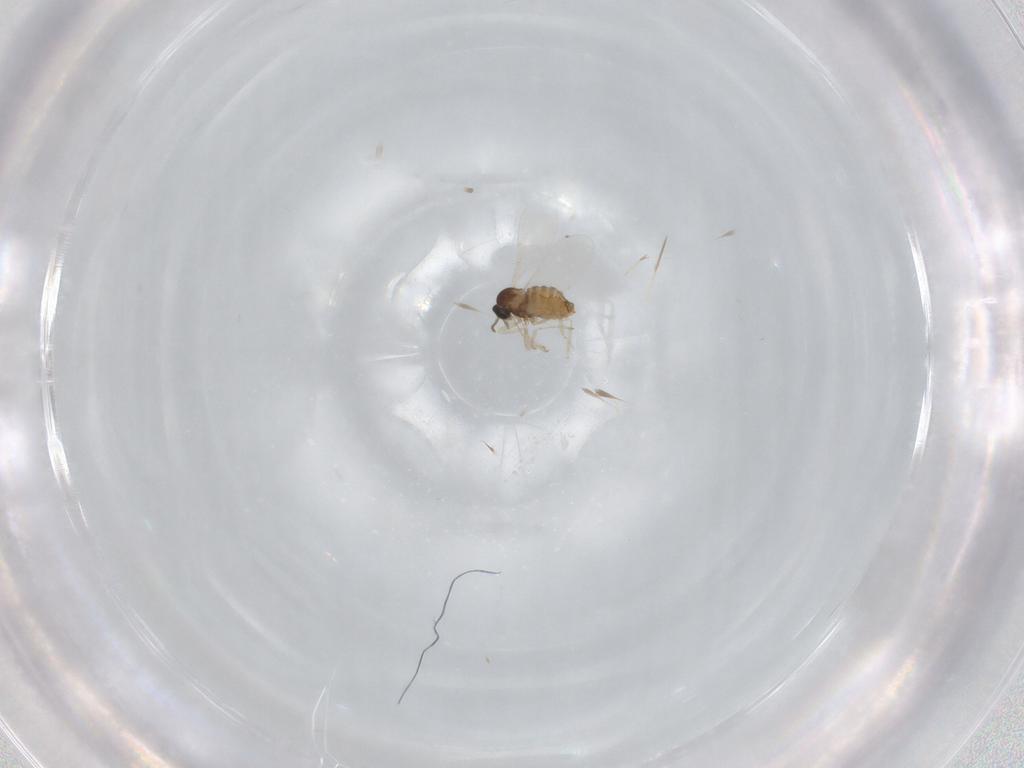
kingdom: Animalia
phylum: Arthropoda
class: Insecta
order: Diptera
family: Cecidomyiidae
